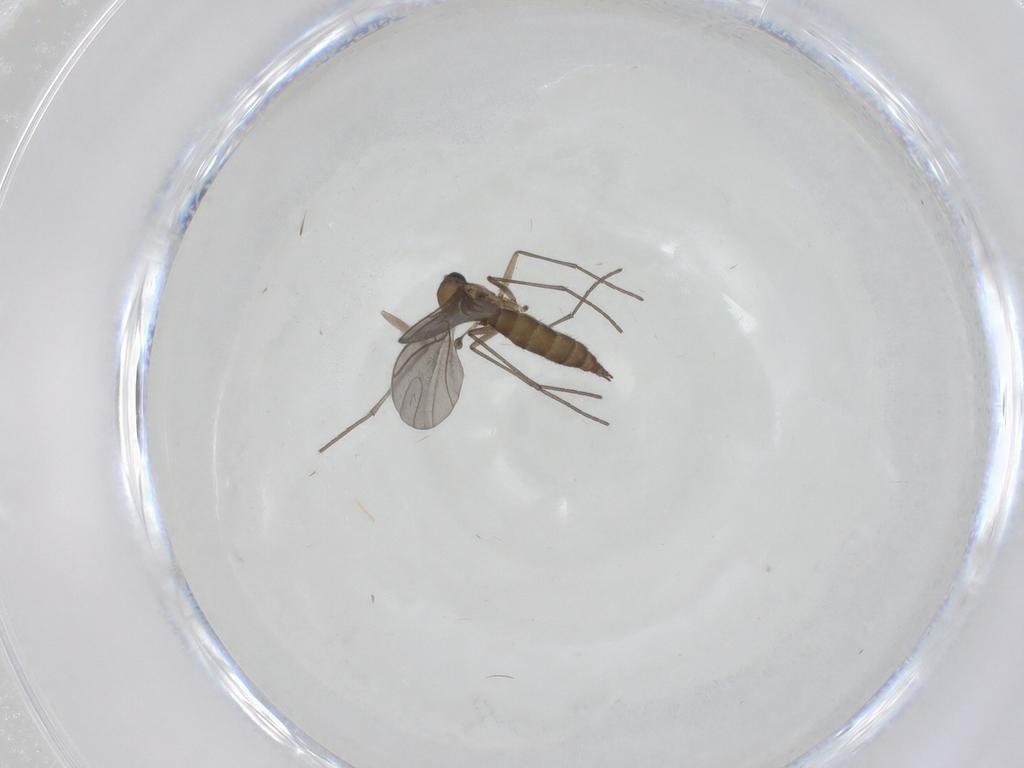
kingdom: Animalia
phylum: Arthropoda
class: Insecta
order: Diptera
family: Sciaridae
